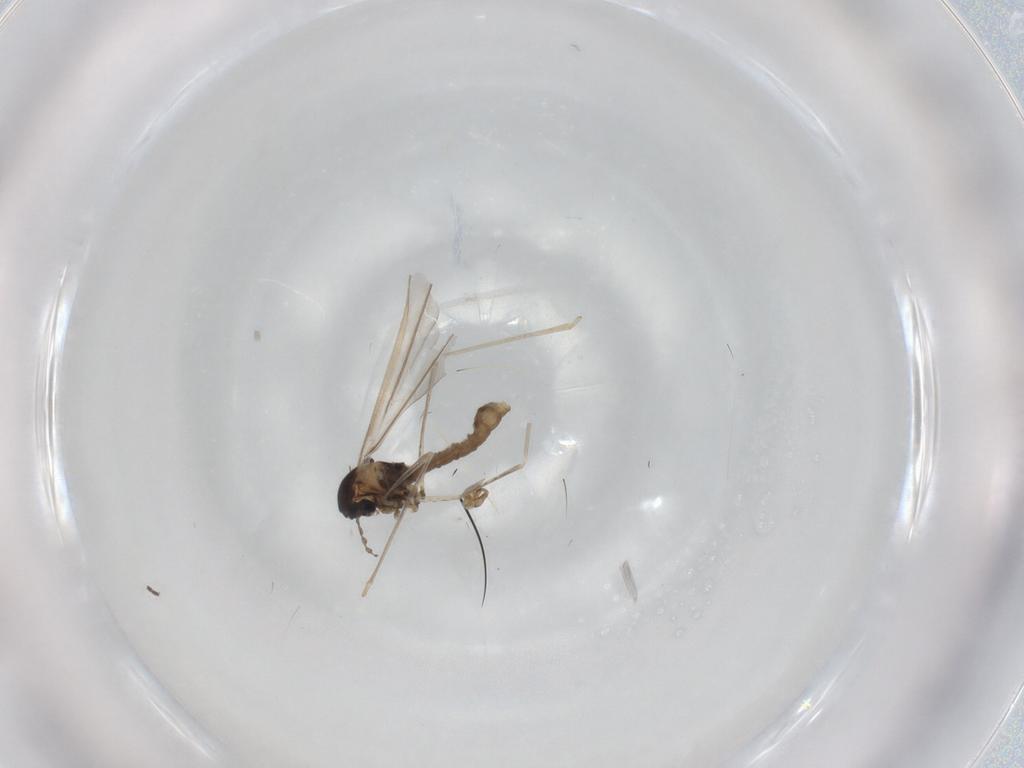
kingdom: Animalia
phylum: Arthropoda
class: Insecta
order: Diptera
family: Cecidomyiidae
